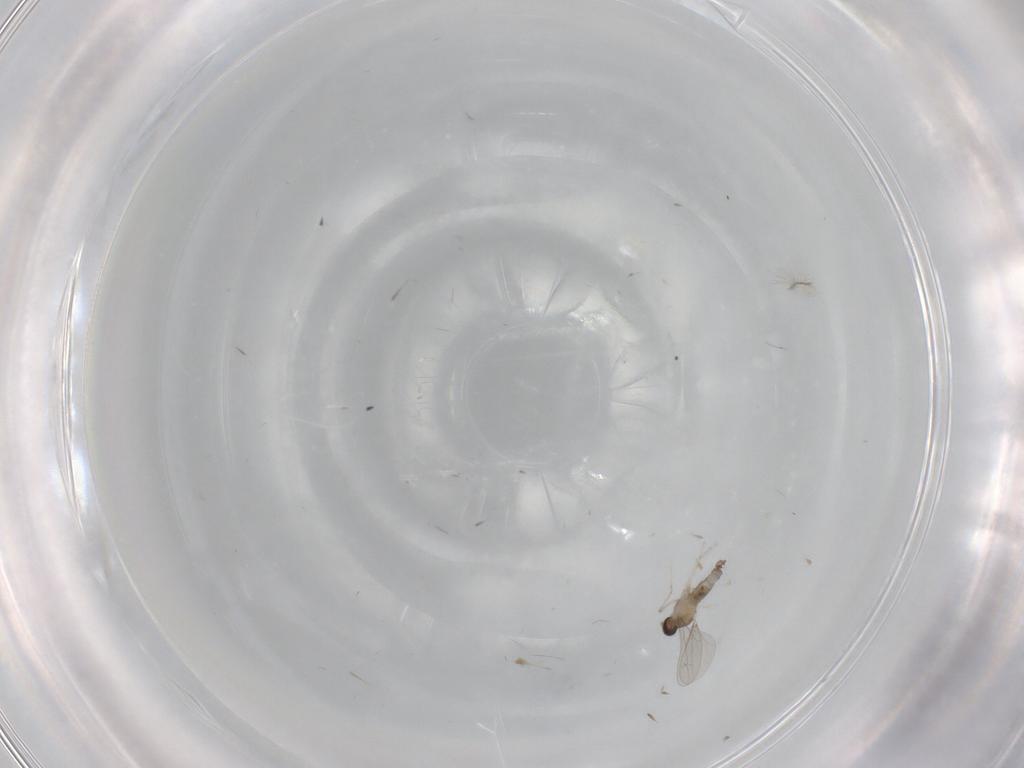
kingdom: Animalia
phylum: Arthropoda
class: Insecta
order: Diptera
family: Cecidomyiidae
